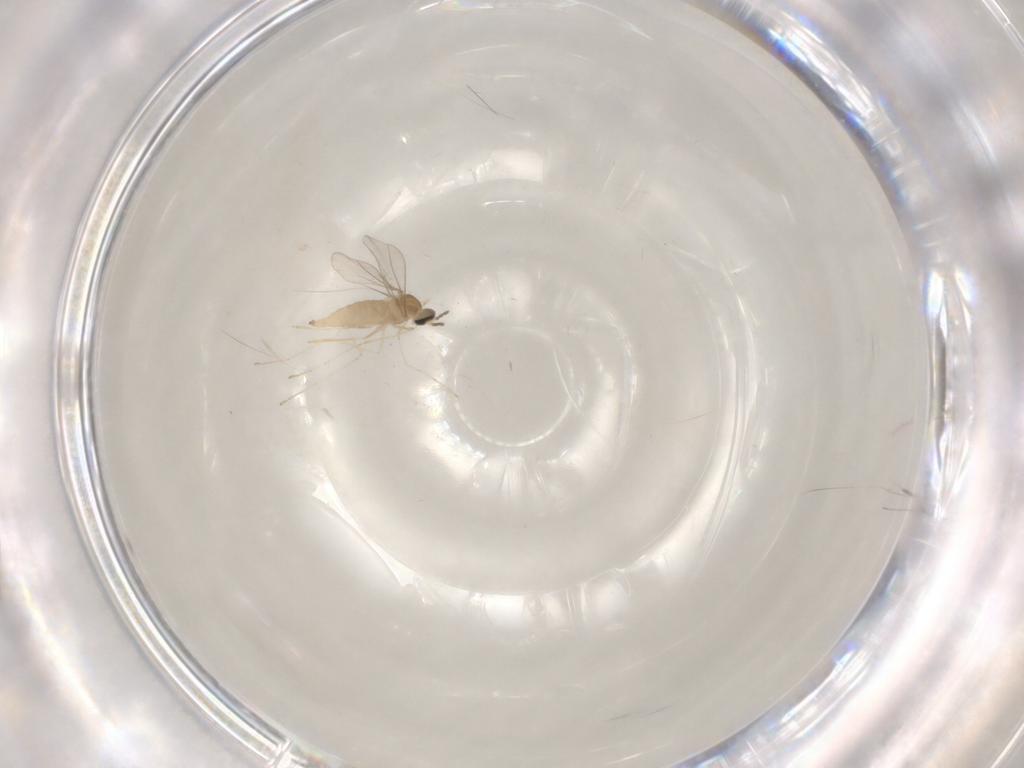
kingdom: Animalia
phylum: Arthropoda
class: Insecta
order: Diptera
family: Cecidomyiidae
